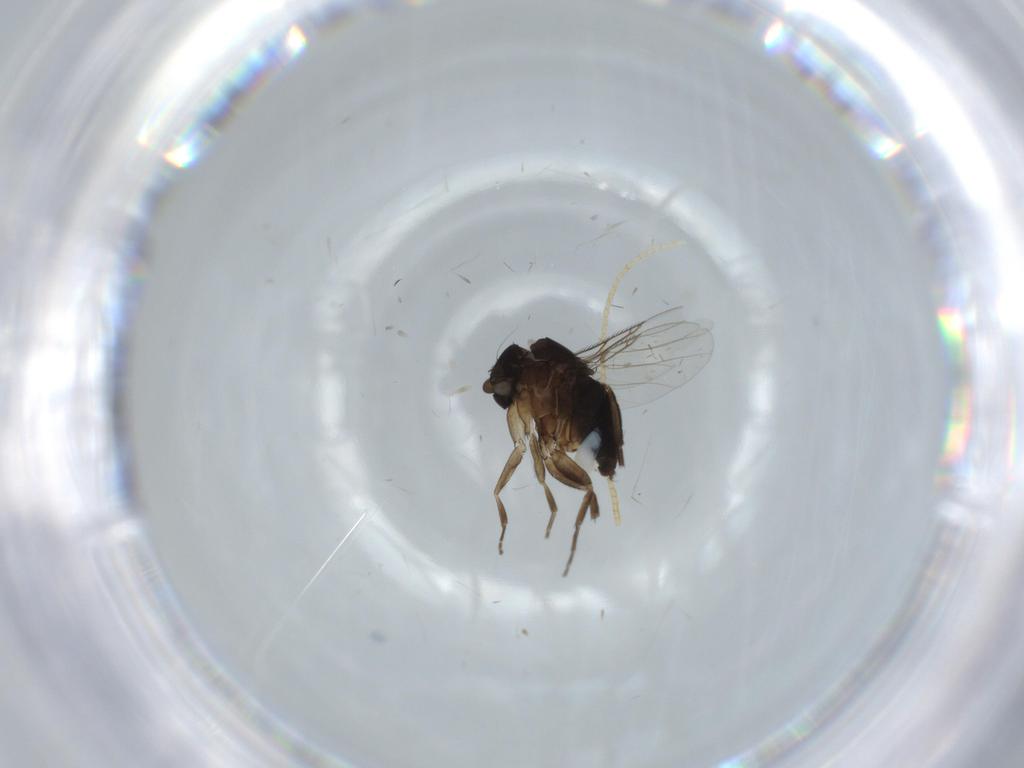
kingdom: Animalia
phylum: Arthropoda
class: Insecta
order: Diptera
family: Phoridae
